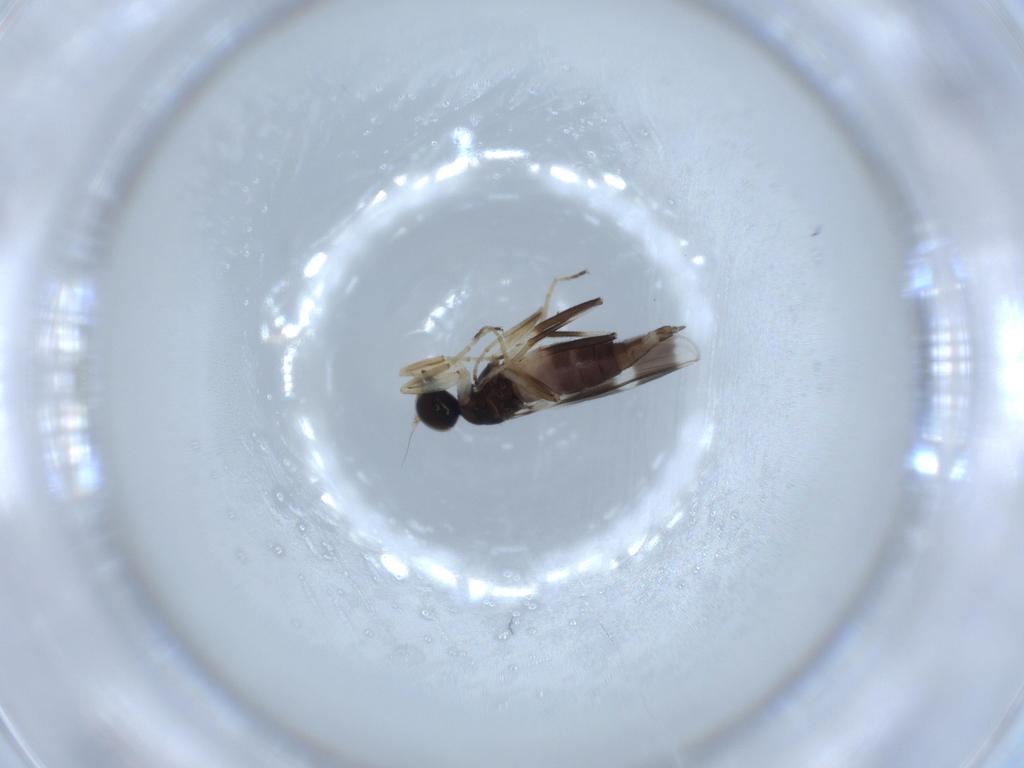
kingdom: Animalia
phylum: Arthropoda
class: Insecta
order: Diptera
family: Hybotidae
